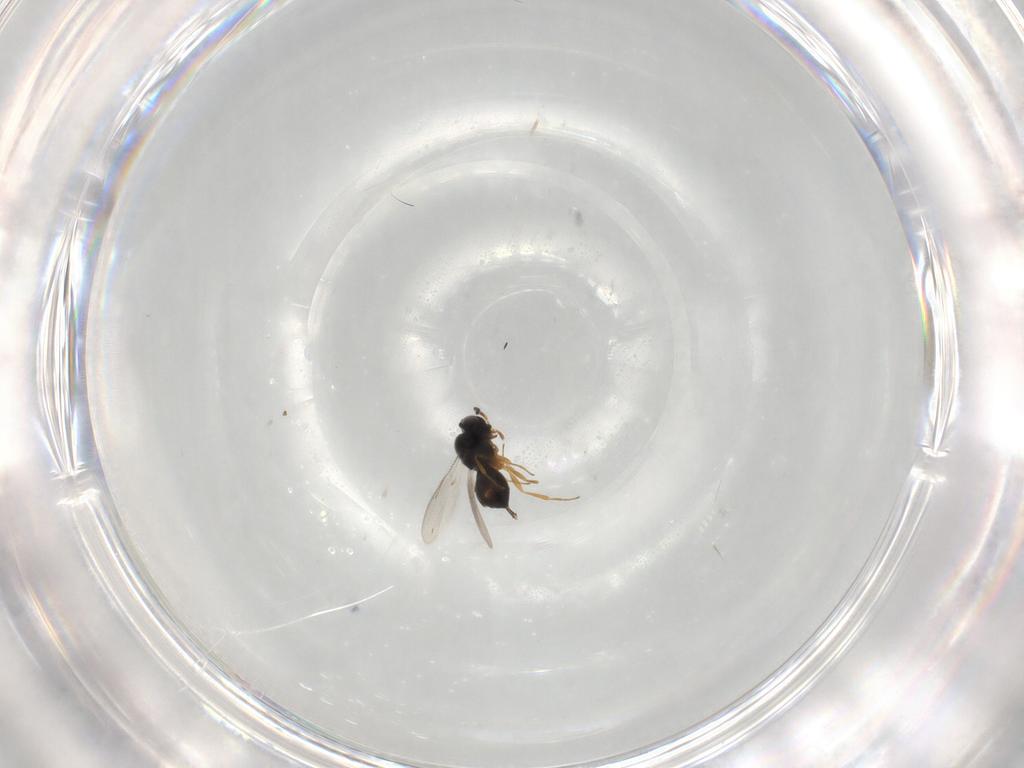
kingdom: Animalia
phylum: Arthropoda
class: Insecta
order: Hymenoptera
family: Scelionidae
